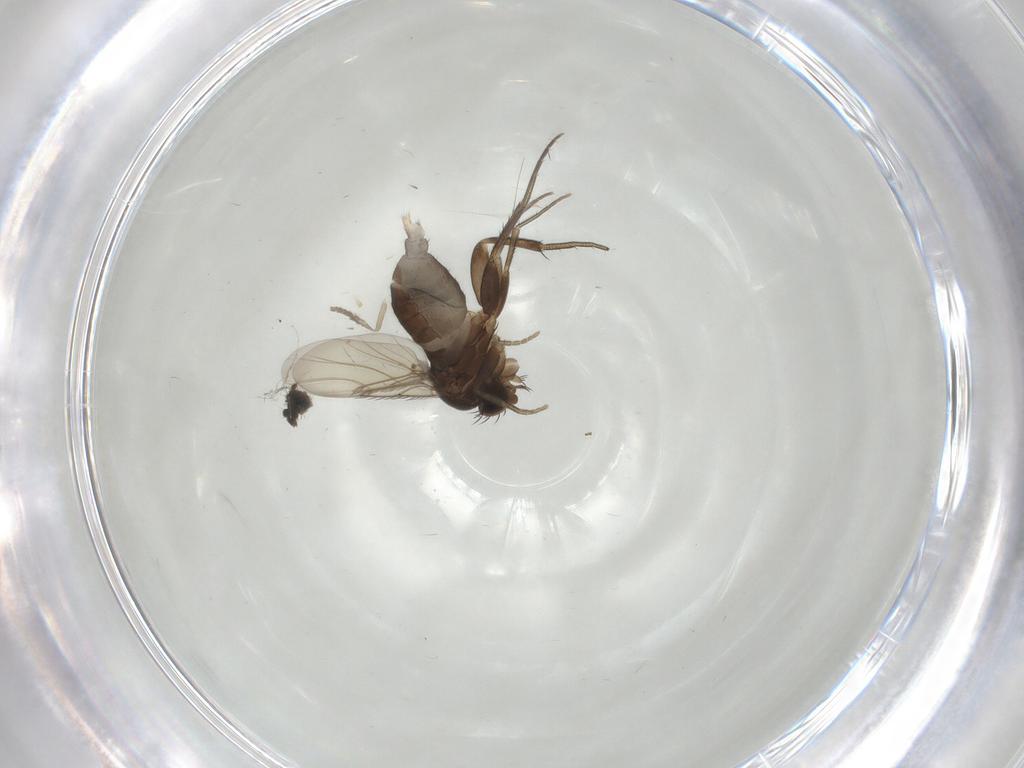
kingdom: Animalia
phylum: Arthropoda
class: Insecta
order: Diptera
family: Phoridae
